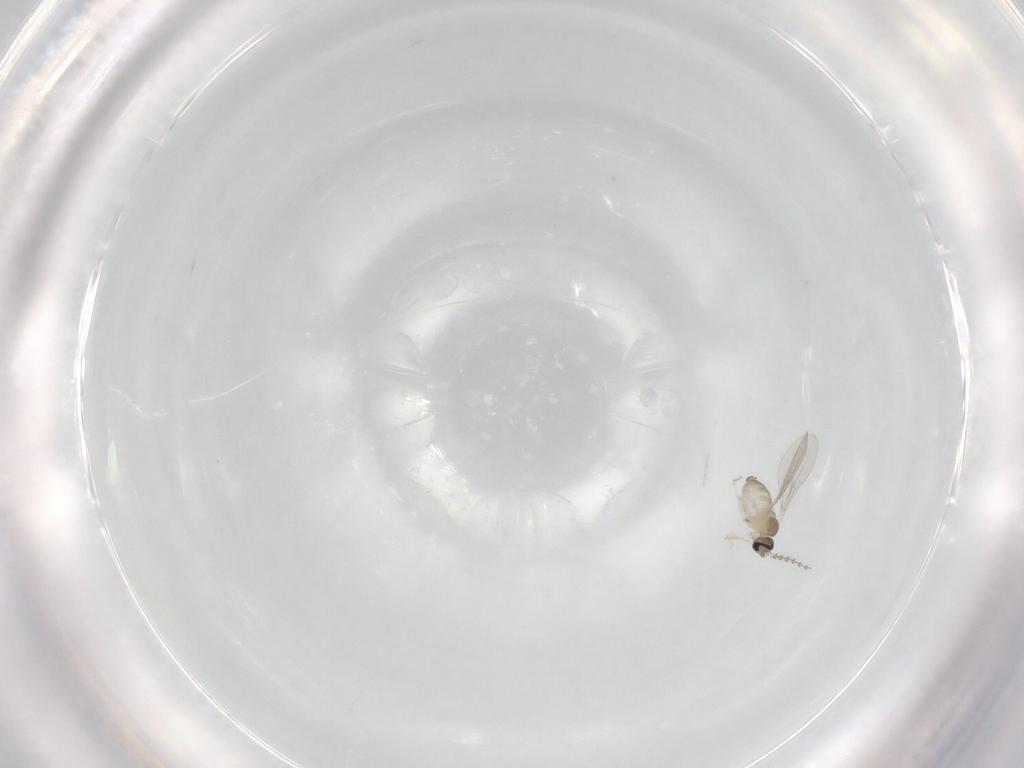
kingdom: Animalia
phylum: Arthropoda
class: Insecta
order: Diptera
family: Cecidomyiidae
